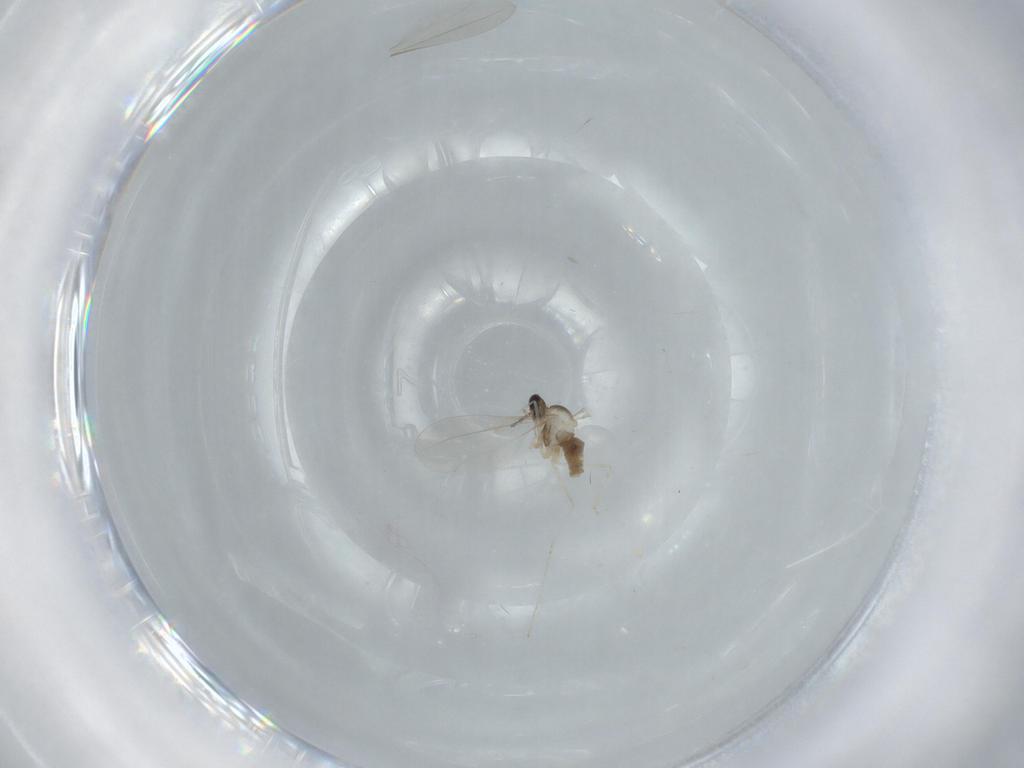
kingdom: Animalia
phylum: Arthropoda
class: Insecta
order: Diptera
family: Cecidomyiidae
